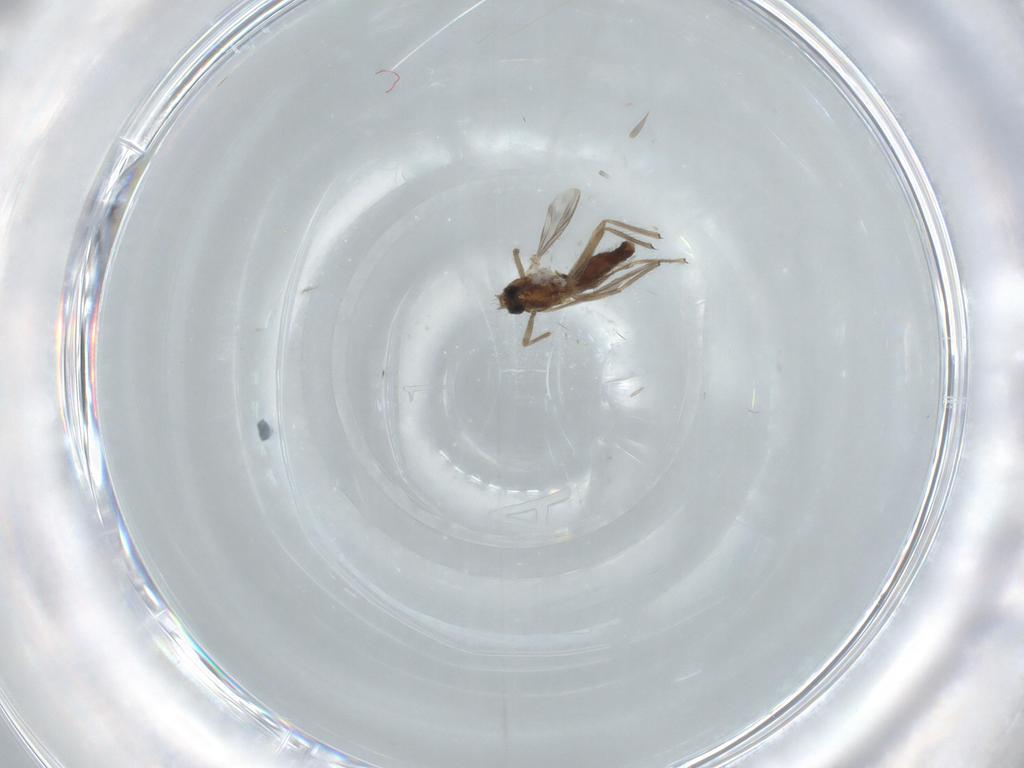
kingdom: Animalia
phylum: Arthropoda
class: Insecta
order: Diptera
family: Chironomidae
